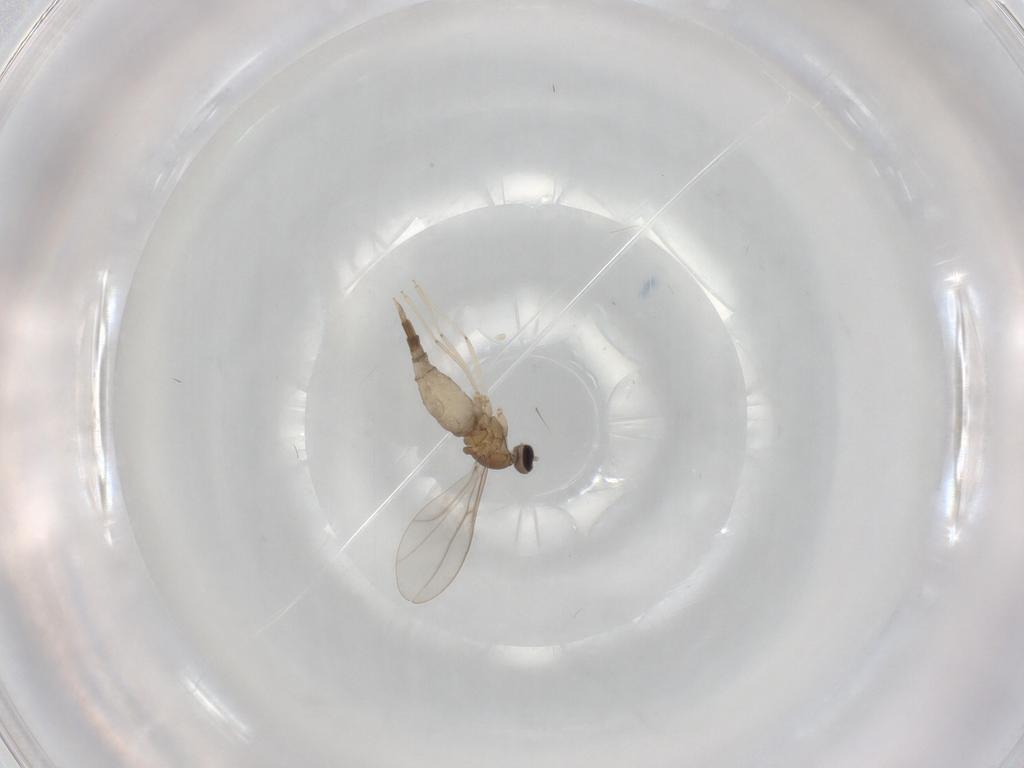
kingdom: Animalia
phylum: Arthropoda
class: Insecta
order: Diptera
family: Cecidomyiidae
